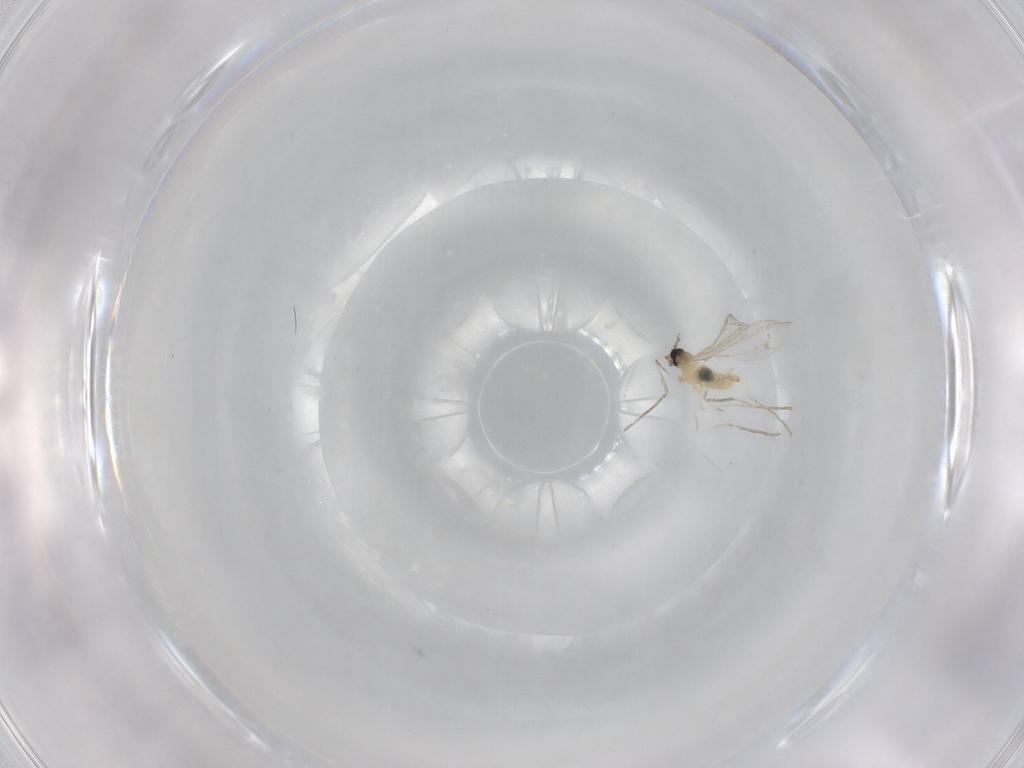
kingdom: Animalia
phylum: Arthropoda
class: Insecta
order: Diptera
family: Cecidomyiidae
